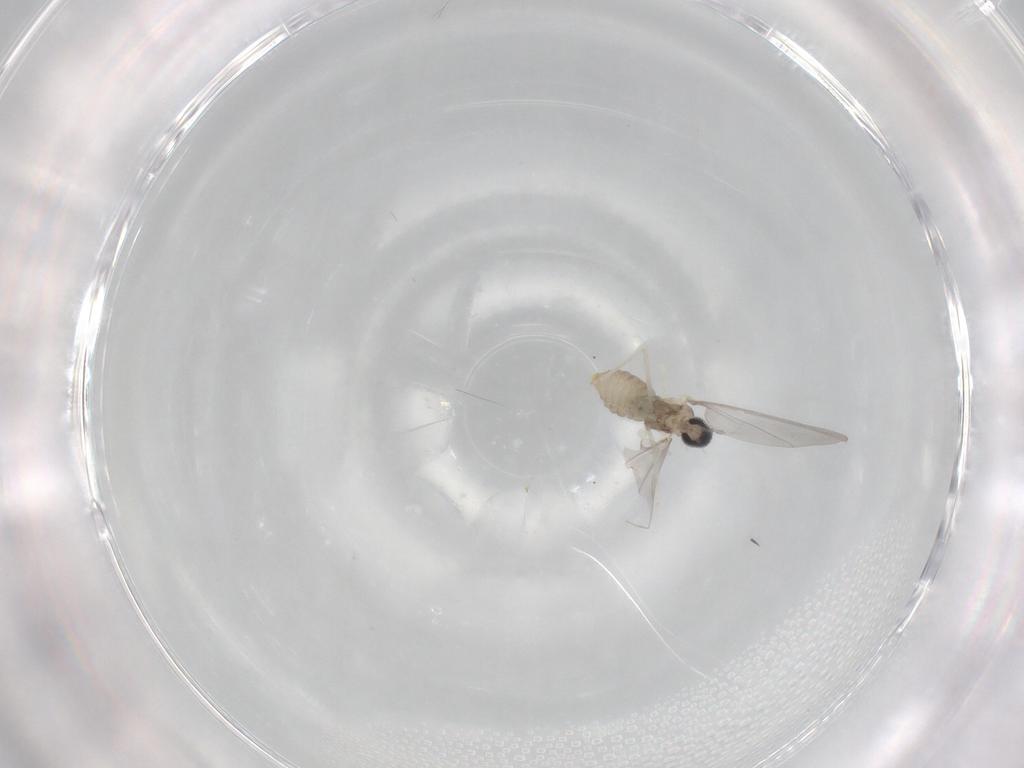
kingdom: Animalia
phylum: Arthropoda
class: Insecta
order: Diptera
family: Cecidomyiidae
